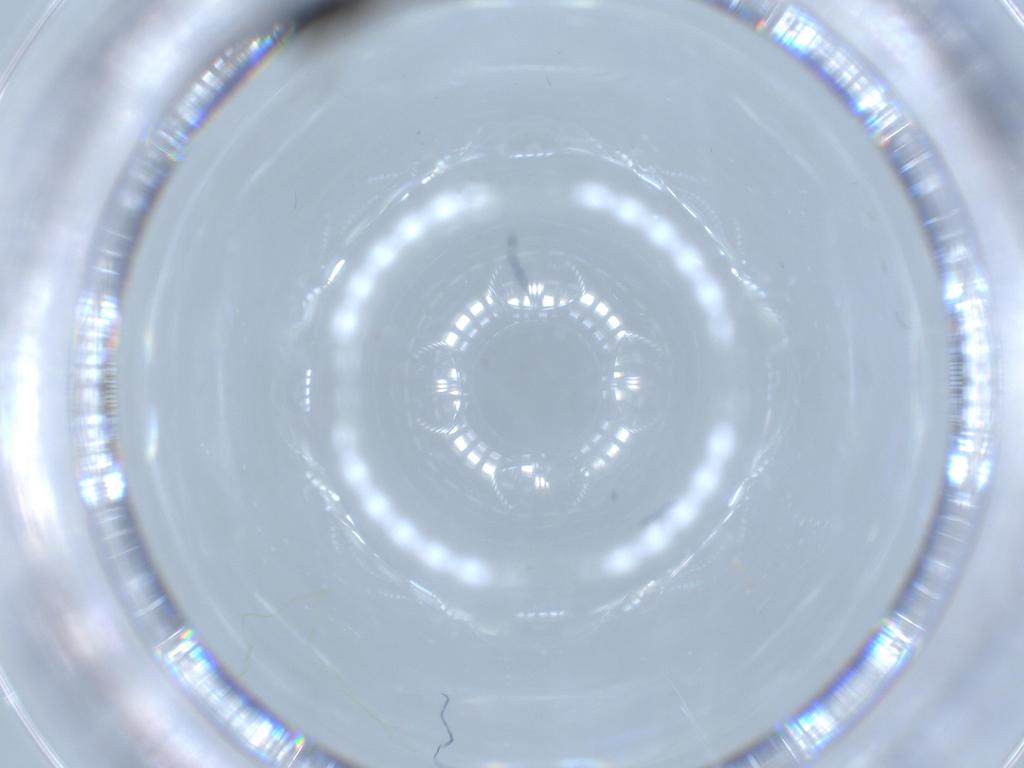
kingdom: Animalia
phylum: Arthropoda
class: Insecta
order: Diptera
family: Sciaridae
